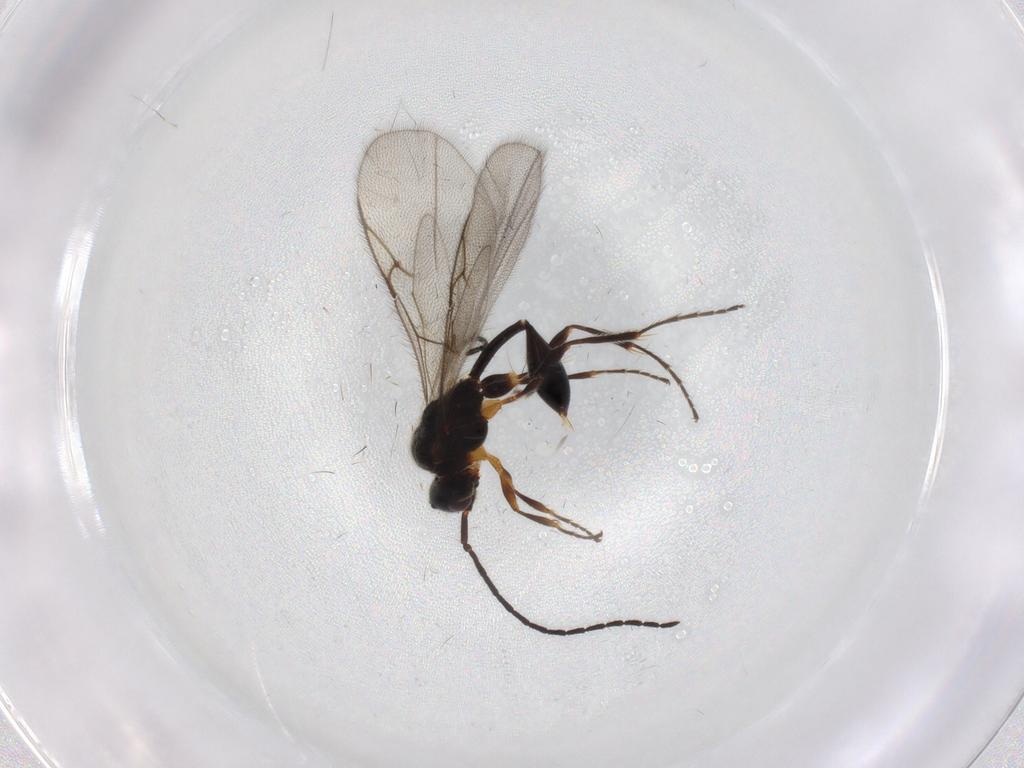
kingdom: Animalia
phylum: Arthropoda
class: Insecta
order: Hymenoptera
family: Diapriidae
